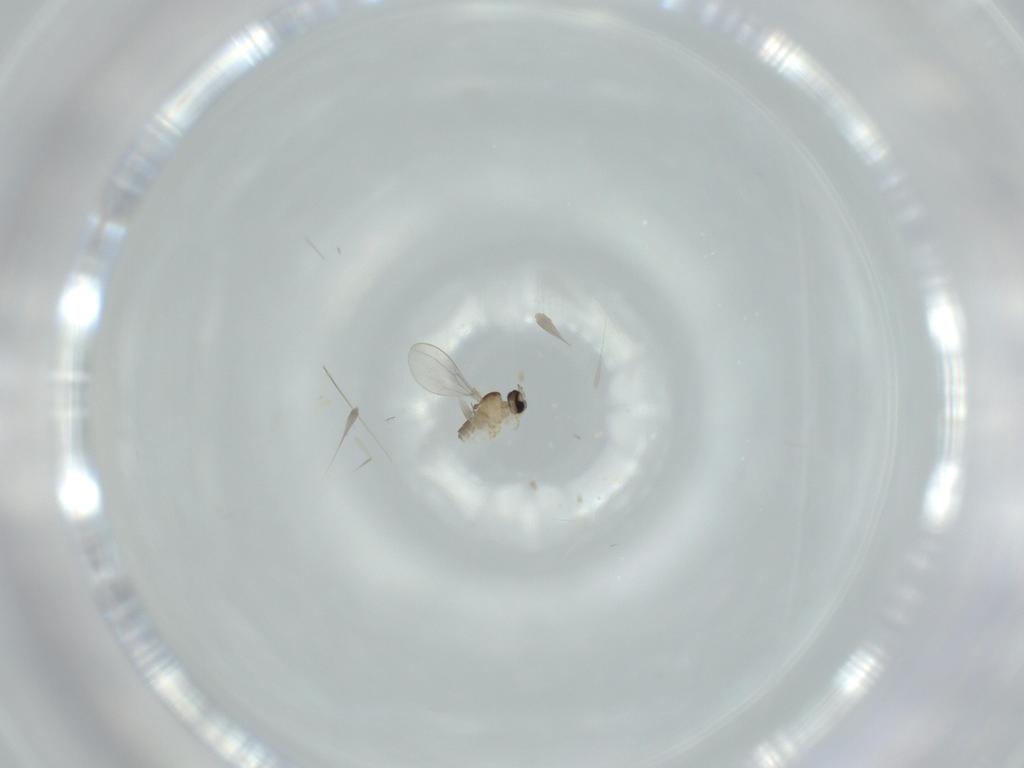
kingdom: Animalia
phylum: Arthropoda
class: Insecta
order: Diptera
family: Cecidomyiidae
